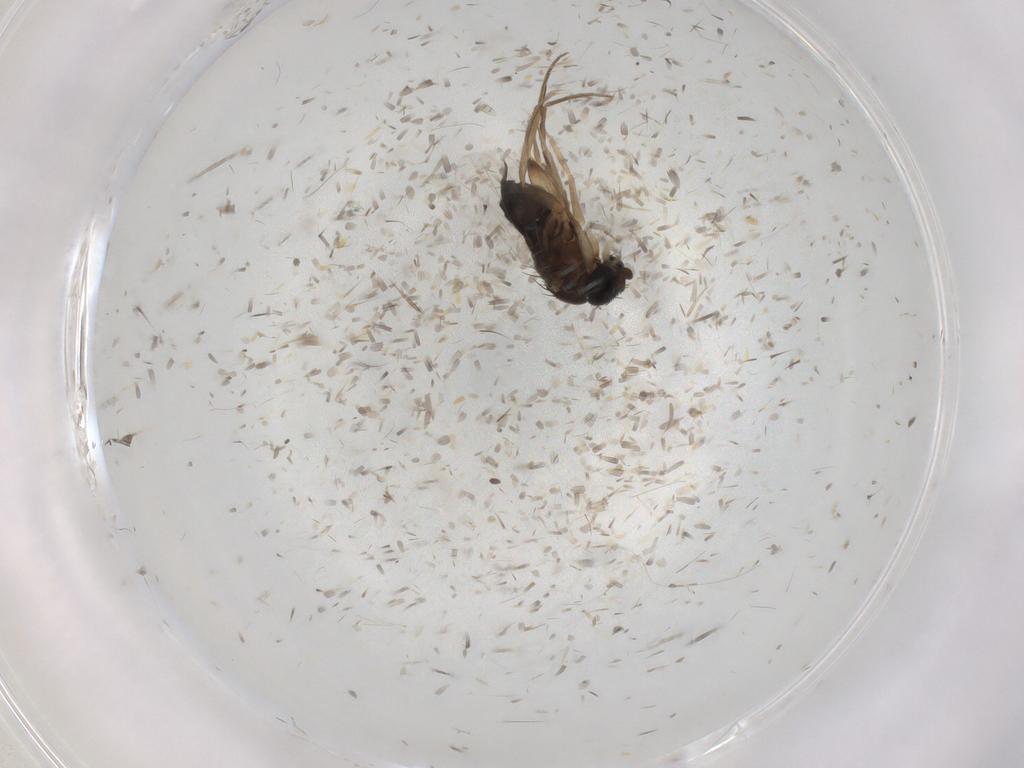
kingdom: Animalia
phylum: Arthropoda
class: Insecta
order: Diptera
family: Phoridae
